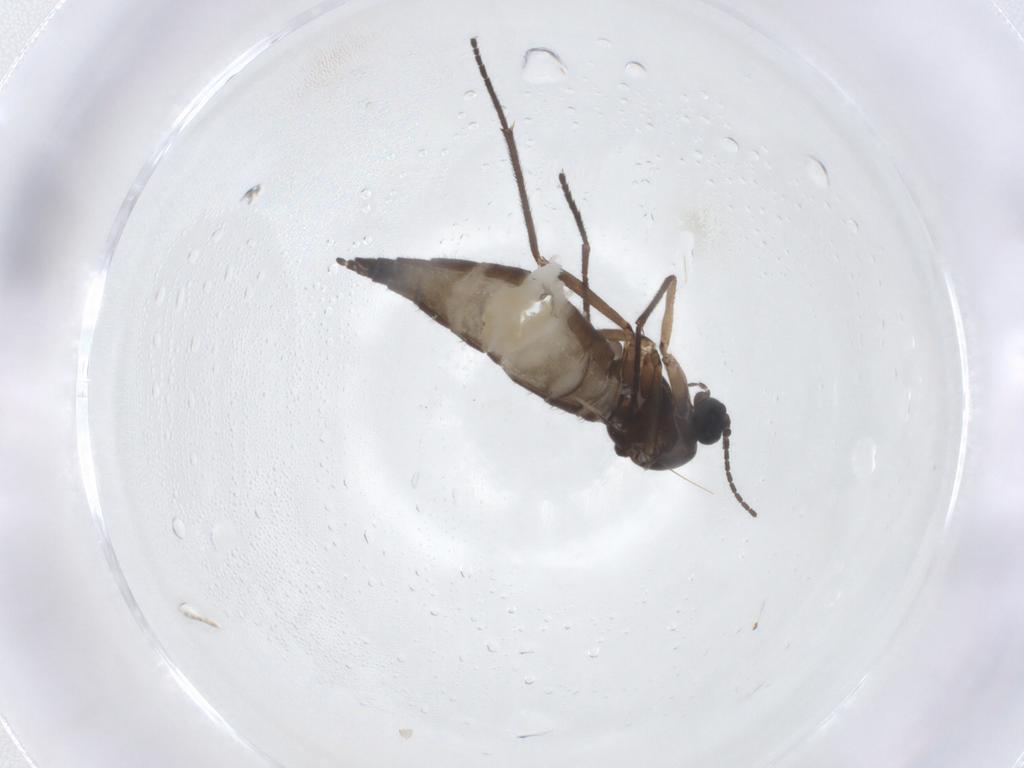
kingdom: Animalia
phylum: Arthropoda
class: Insecta
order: Diptera
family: Sciaridae
